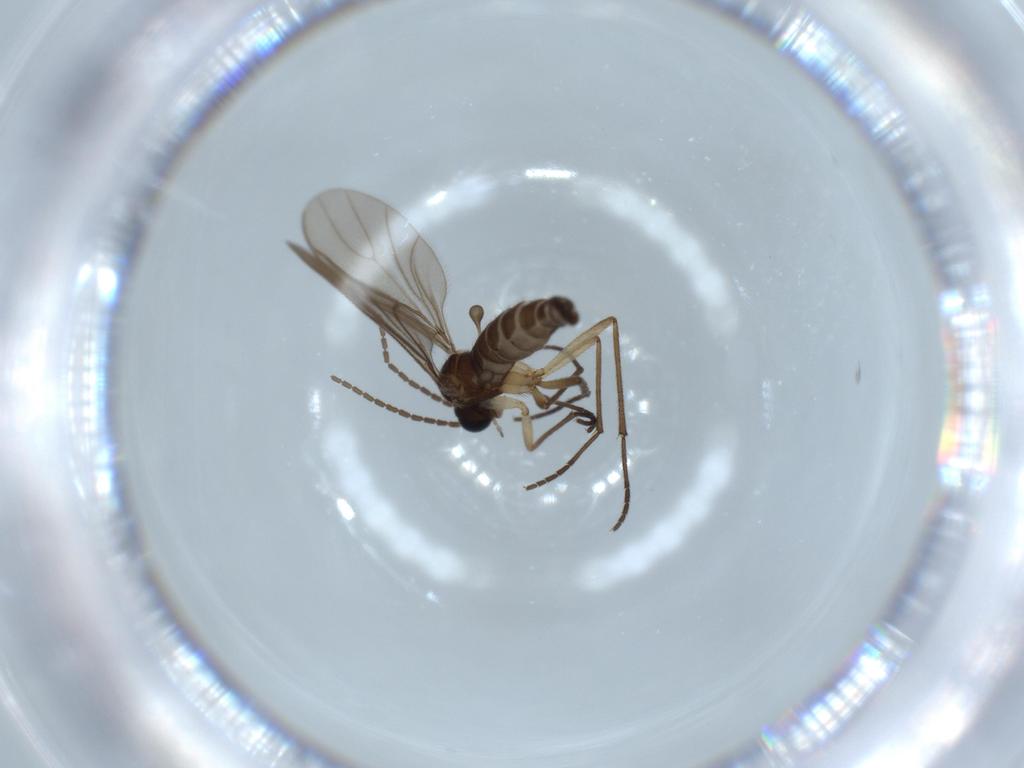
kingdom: Animalia
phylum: Arthropoda
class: Insecta
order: Diptera
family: Sciaridae
